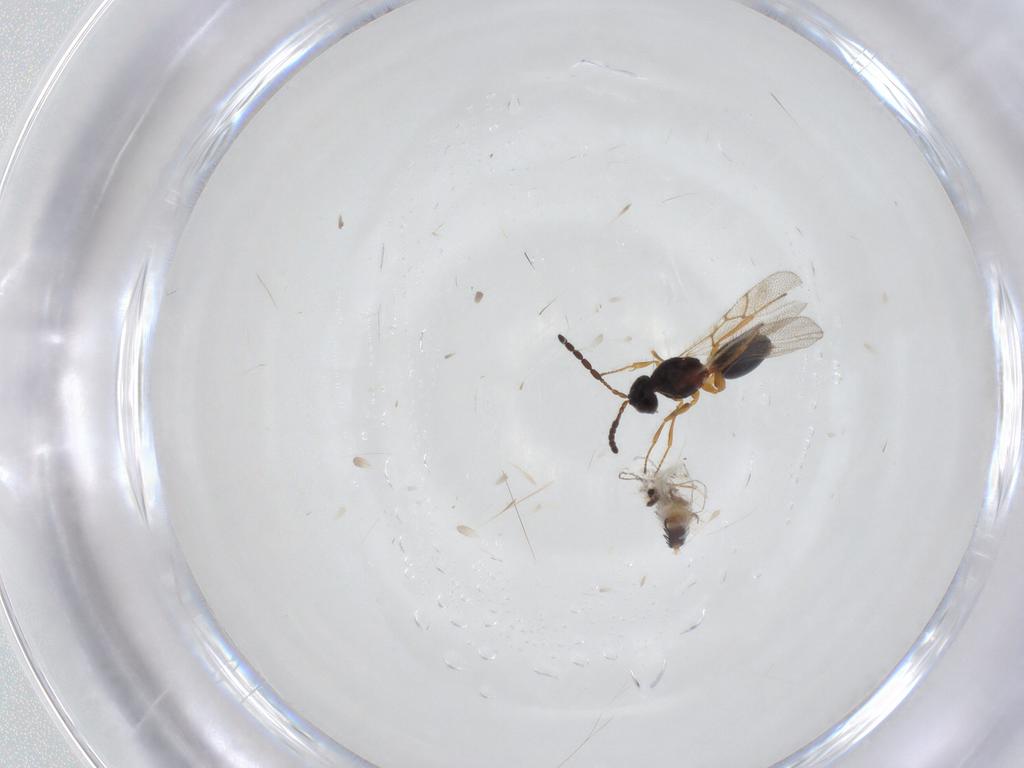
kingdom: Animalia
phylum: Arthropoda
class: Insecta
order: Hymenoptera
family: Figitidae
